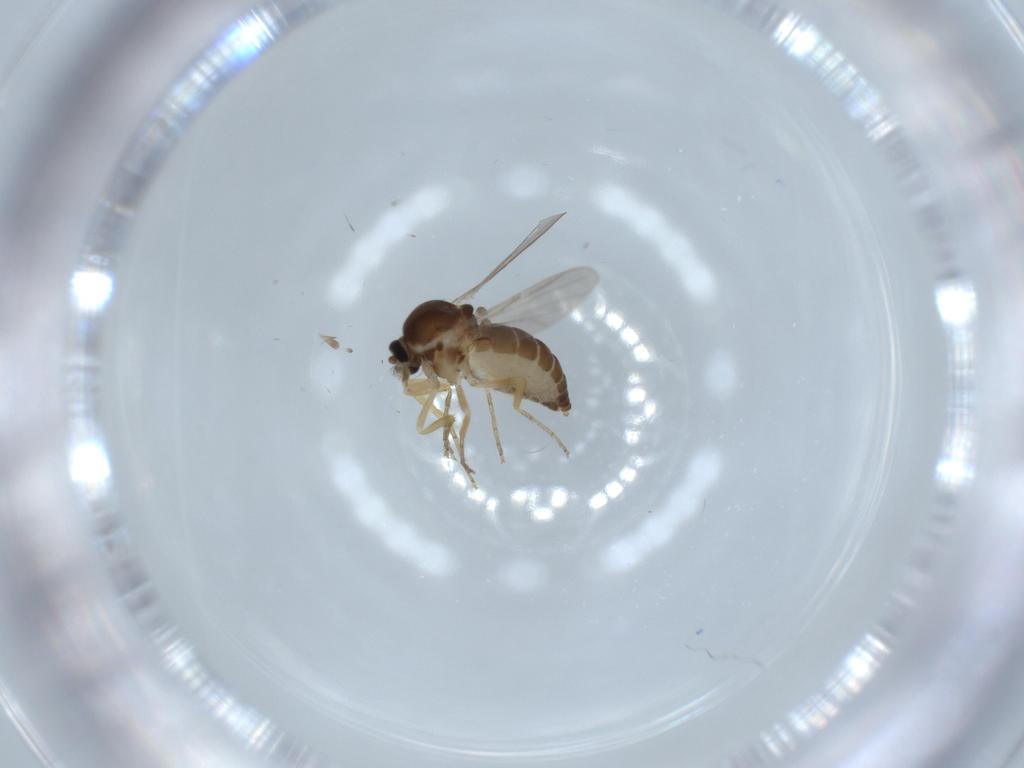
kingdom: Animalia
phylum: Arthropoda
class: Insecta
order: Diptera
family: Ceratopogonidae
